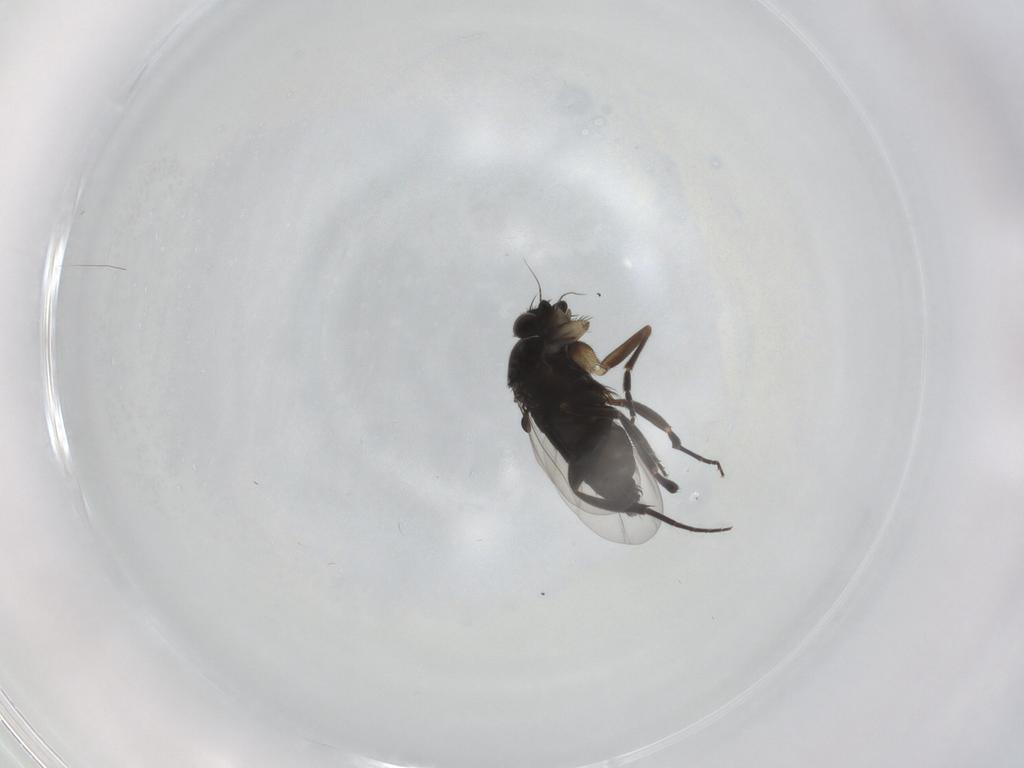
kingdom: Animalia
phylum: Arthropoda
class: Insecta
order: Diptera
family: Phoridae
